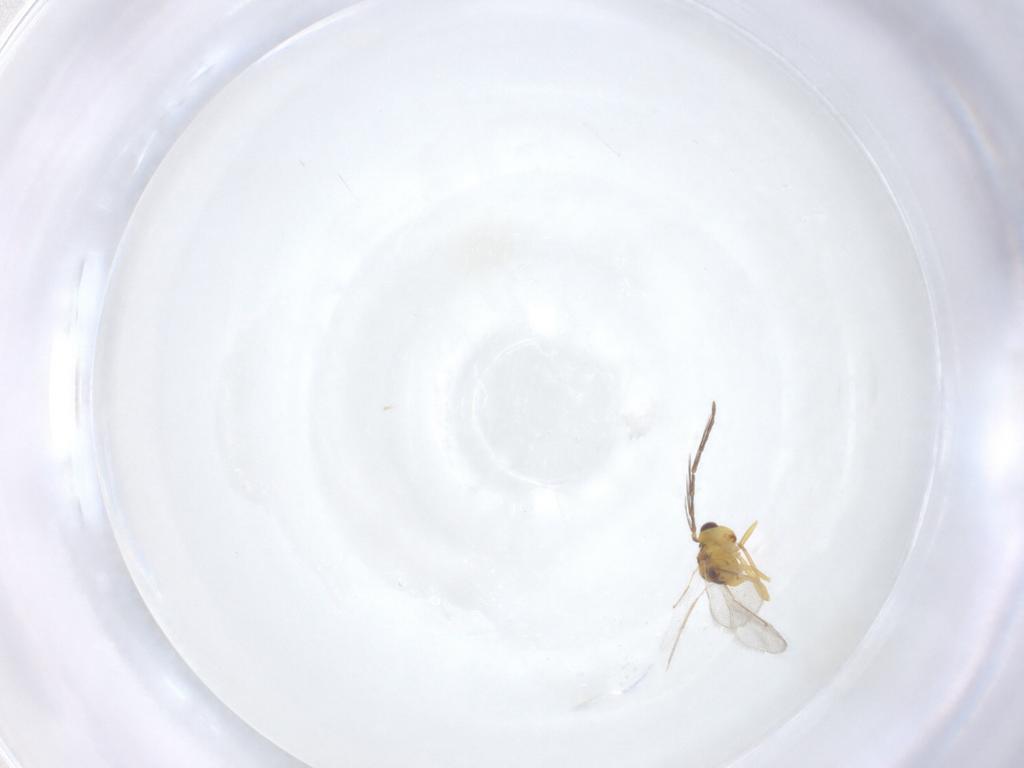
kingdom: Animalia
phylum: Arthropoda
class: Insecta
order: Hymenoptera
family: Eulophidae
